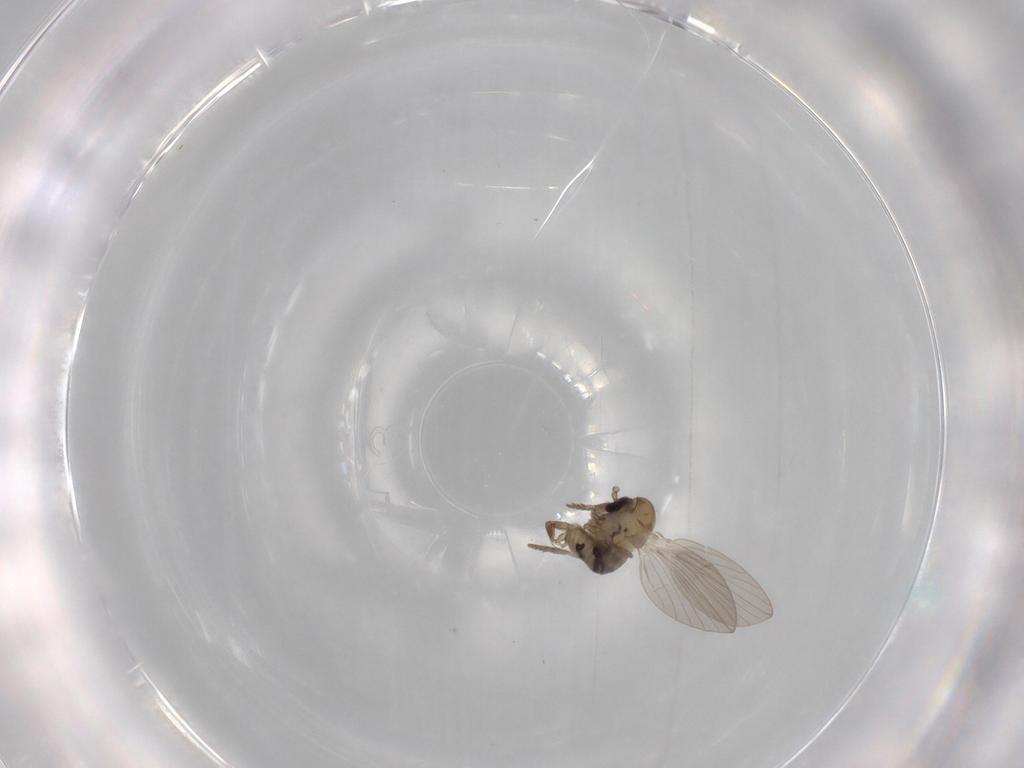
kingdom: Animalia
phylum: Arthropoda
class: Insecta
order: Diptera
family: Psychodidae
